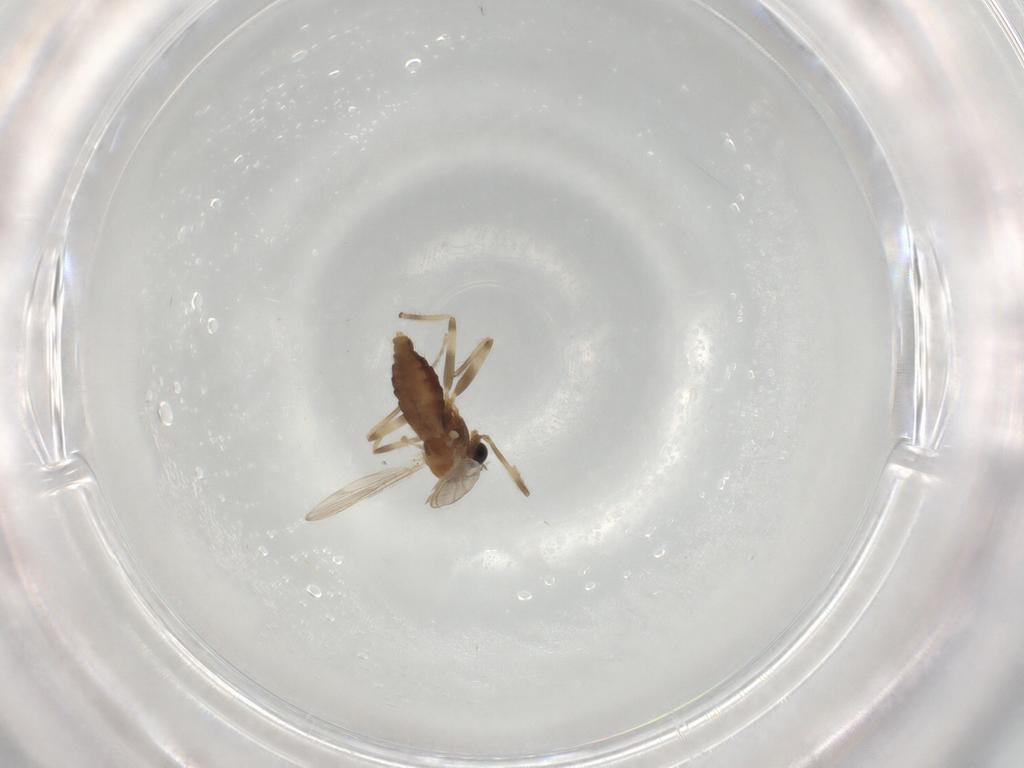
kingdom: Animalia
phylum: Arthropoda
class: Insecta
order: Diptera
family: Chironomidae
